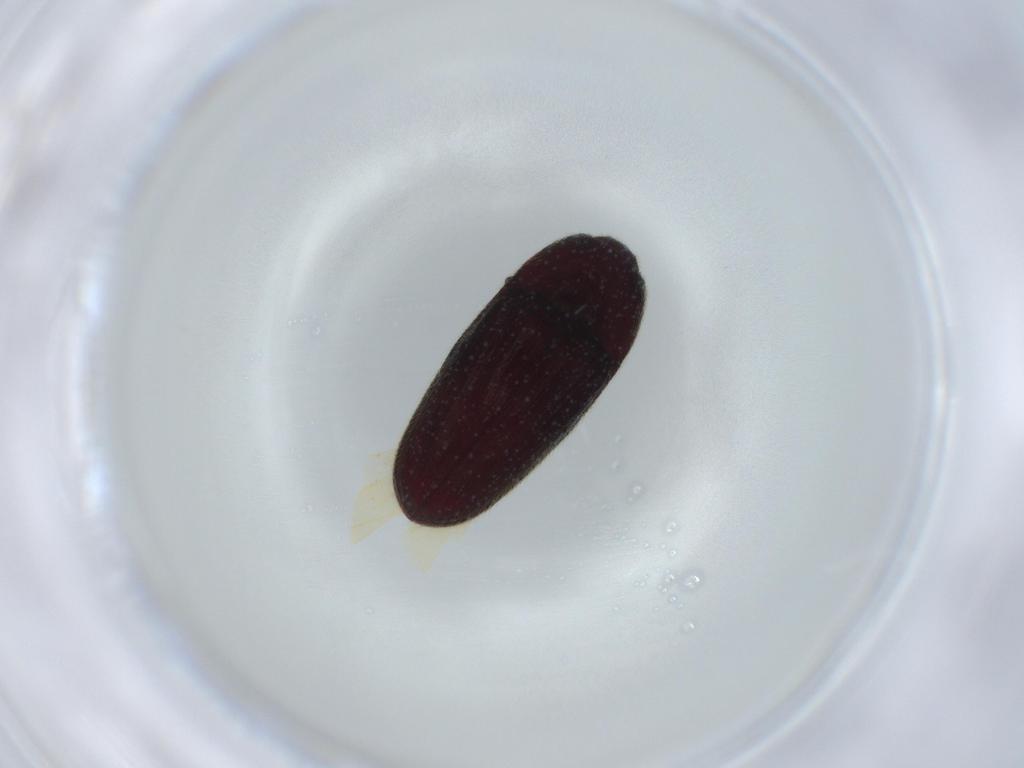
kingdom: Animalia
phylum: Arthropoda
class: Insecta
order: Coleoptera
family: Throscidae
